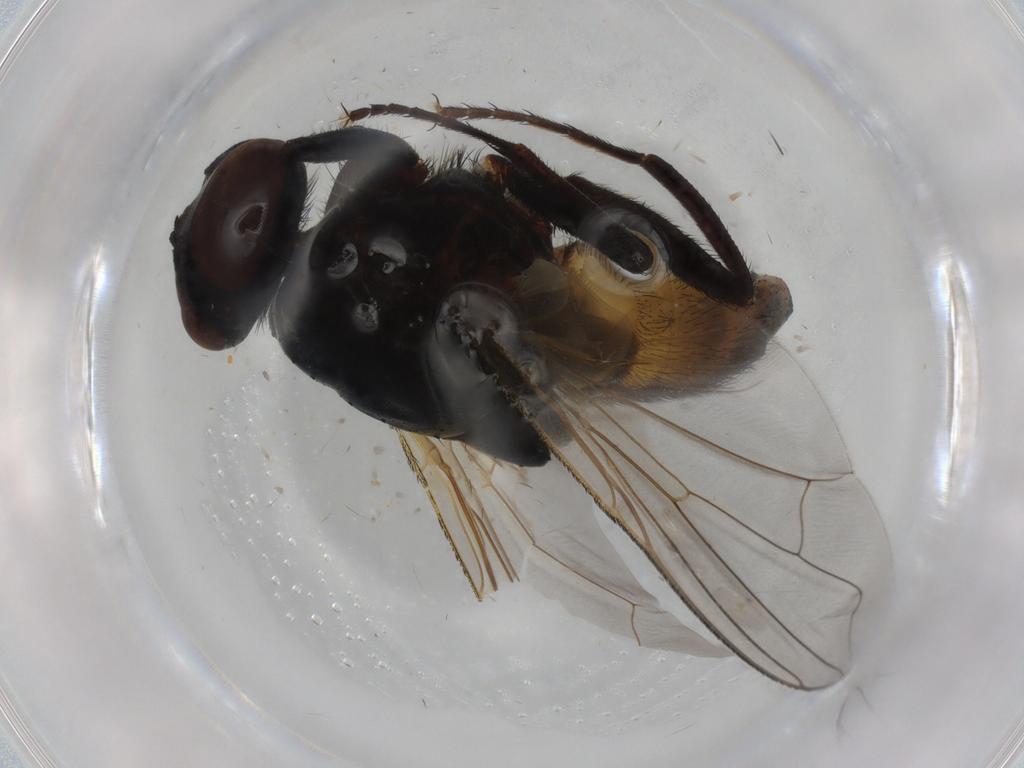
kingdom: Animalia
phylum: Arthropoda
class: Insecta
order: Diptera
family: Muscidae
